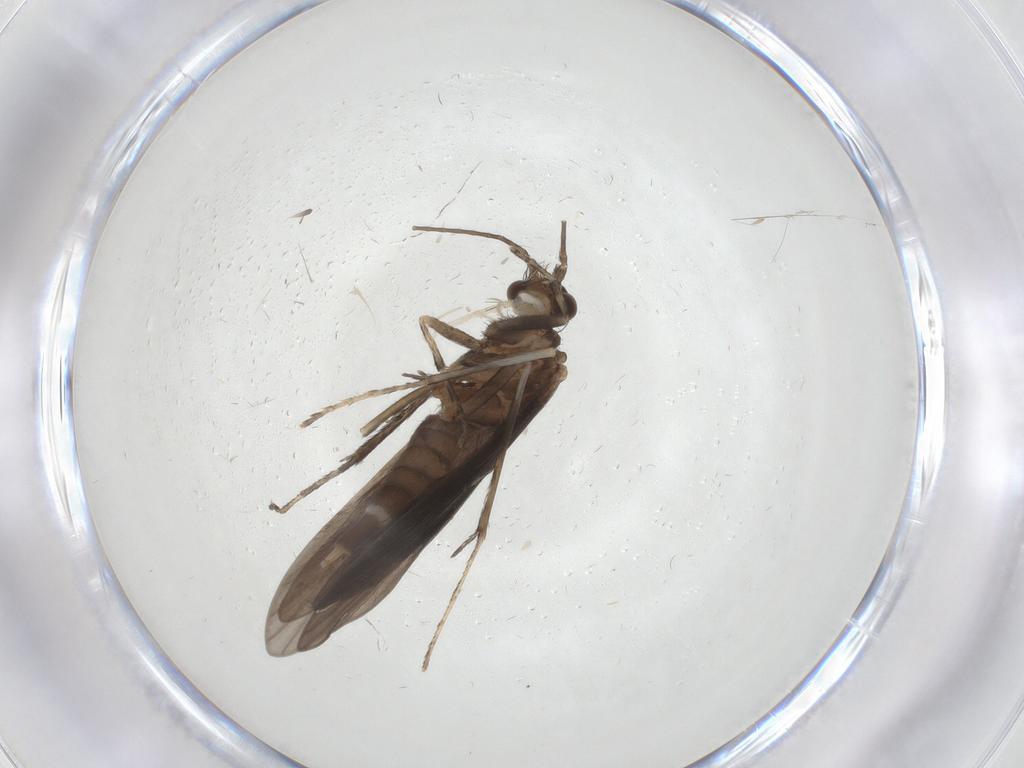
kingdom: Animalia
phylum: Arthropoda
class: Insecta
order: Trichoptera
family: Xiphocentronidae
